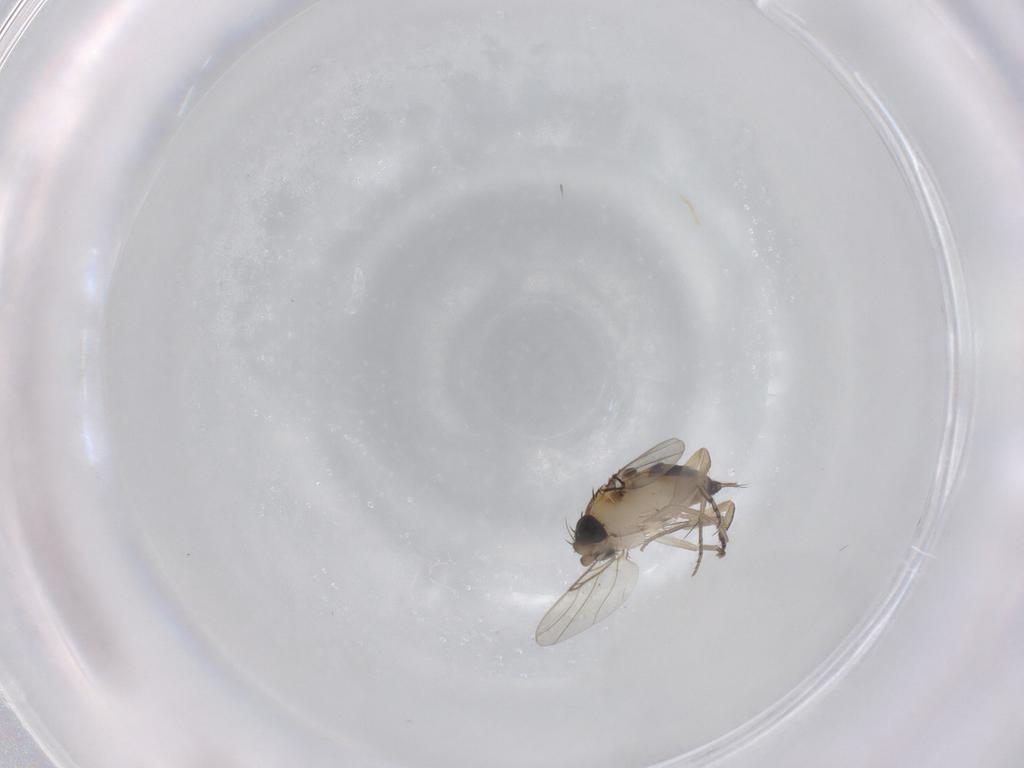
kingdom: Animalia
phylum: Arthropoda
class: Insecta
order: Diptera
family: Phoridae
